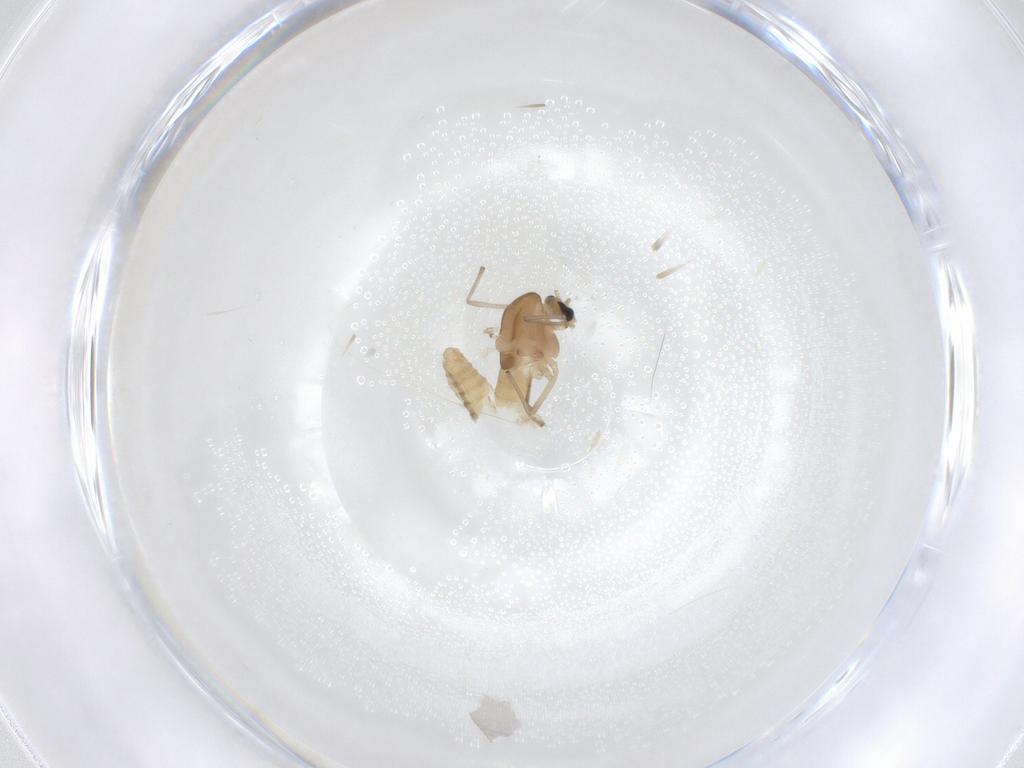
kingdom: Animalia
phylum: Arthropoda
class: Insecta
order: Diptera
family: Chironomidae
